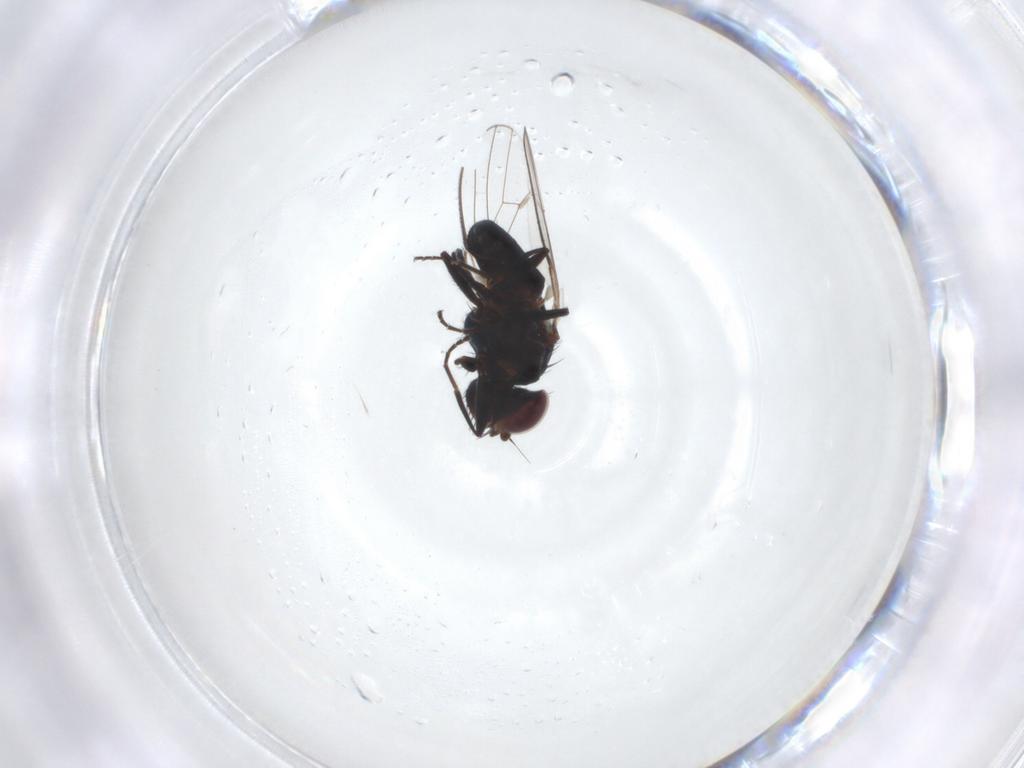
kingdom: Animalia
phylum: Arthropoda
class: Insecta
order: Diptera
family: Carnidae
